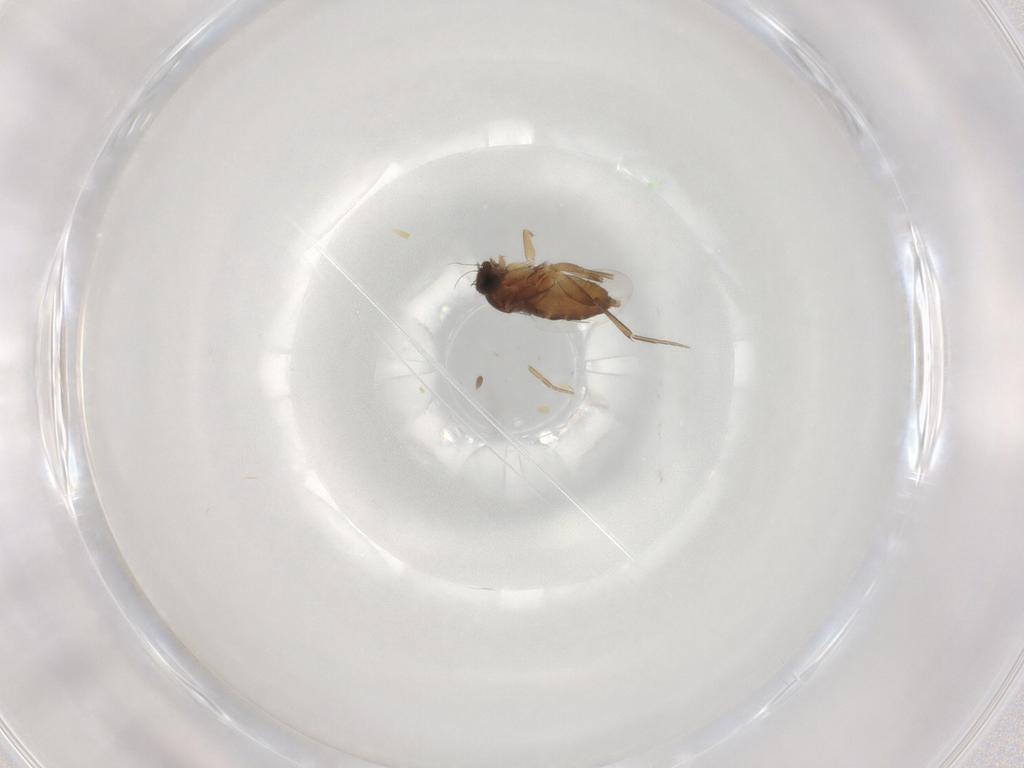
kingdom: Animalia
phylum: Arthropoda
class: Insecta
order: Diptera
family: Phoridae
